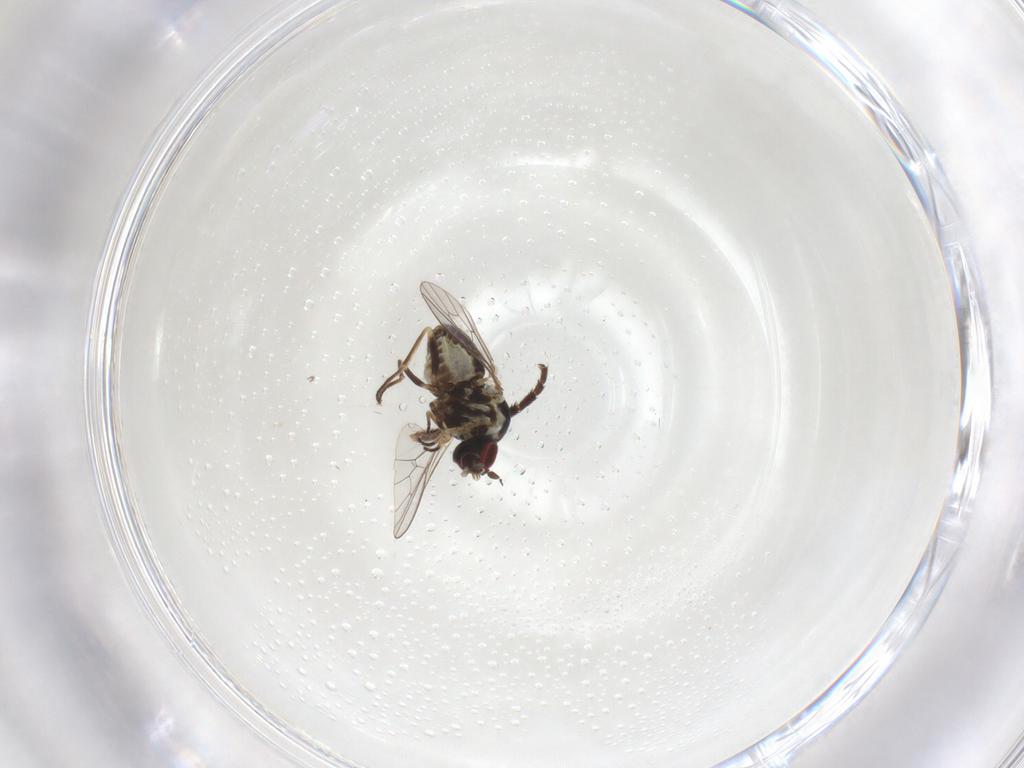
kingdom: Animalia
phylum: Arthropoda
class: Insecta
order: Diptera
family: Therevidae
